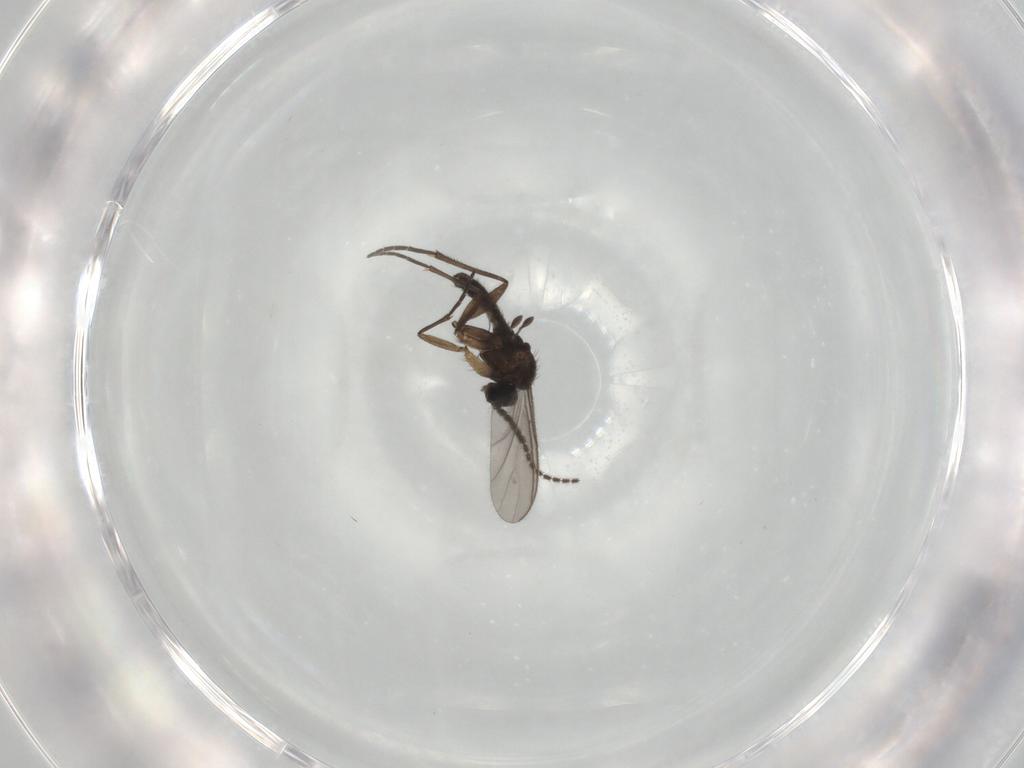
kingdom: Animalia
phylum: Arthropoda
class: Insecta
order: Diptera
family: Sciaridae
